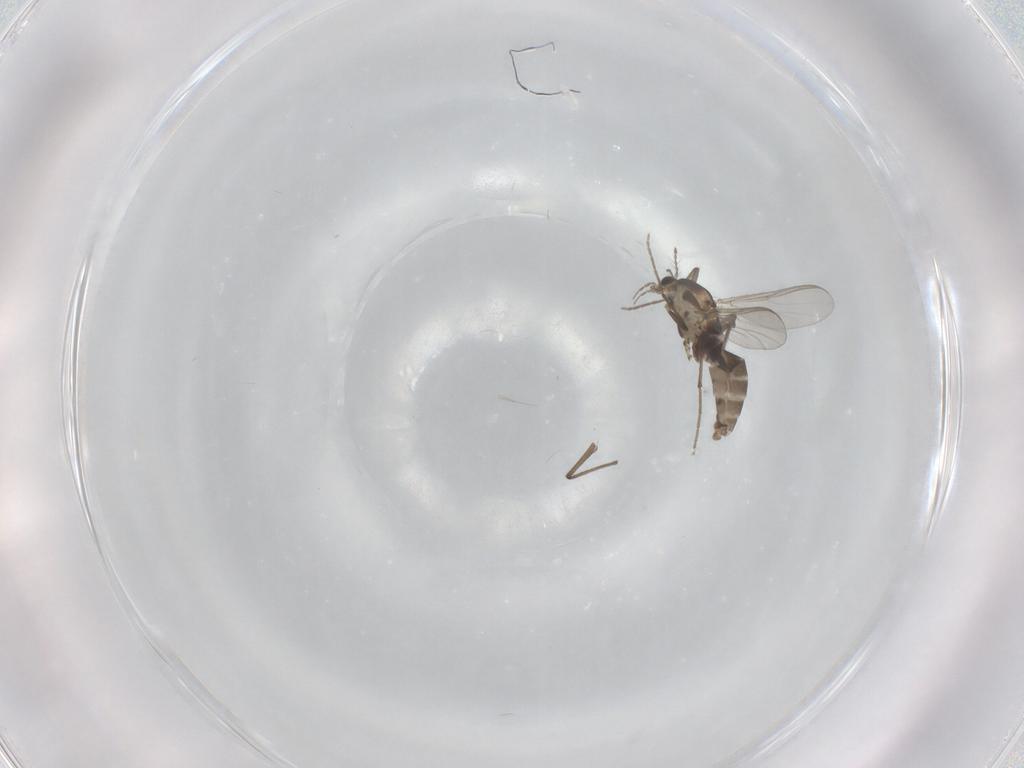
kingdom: Animalia
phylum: Arthropoda
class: Insecta
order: Diptera
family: Chironomidae
